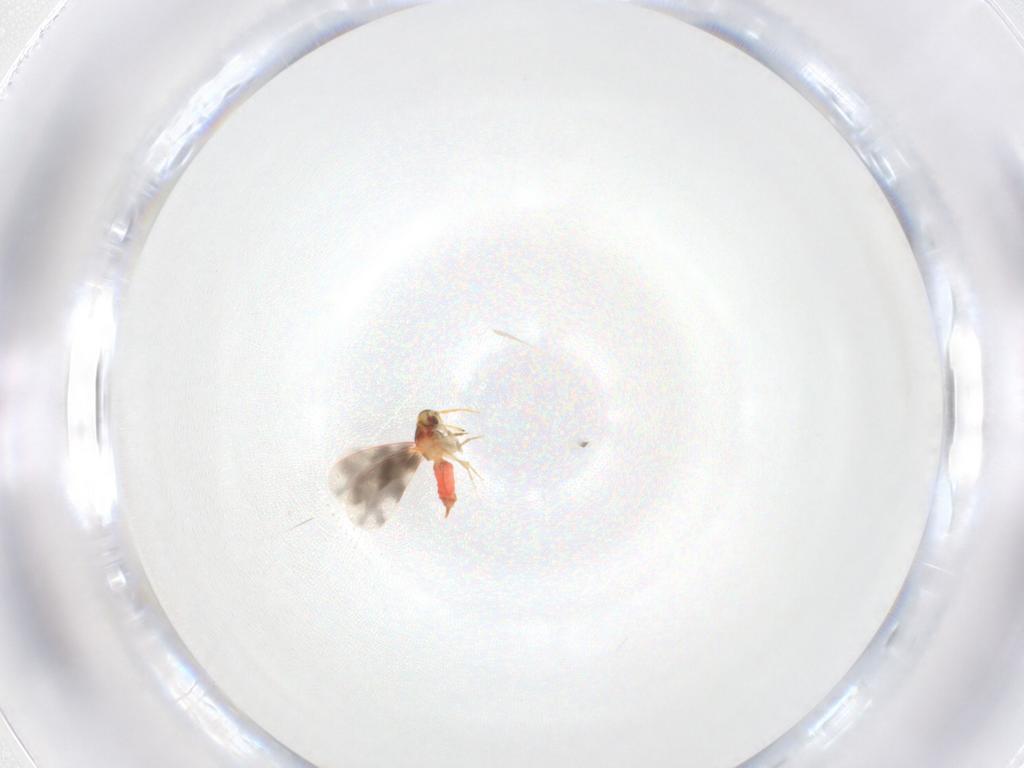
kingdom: Animalia
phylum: Arthropoda
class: Insecta
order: Hemiptera
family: Aleyrodidae
